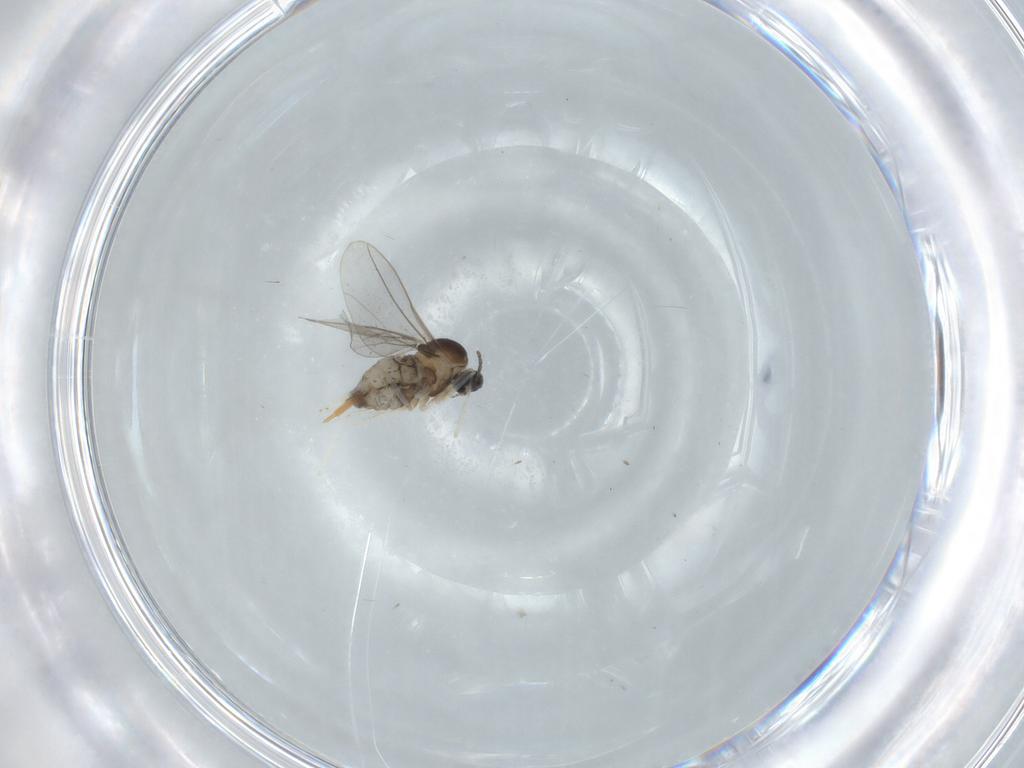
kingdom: Animalia
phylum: Arthropoda
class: Insecta
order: Diptera
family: Cecidomyiidae
